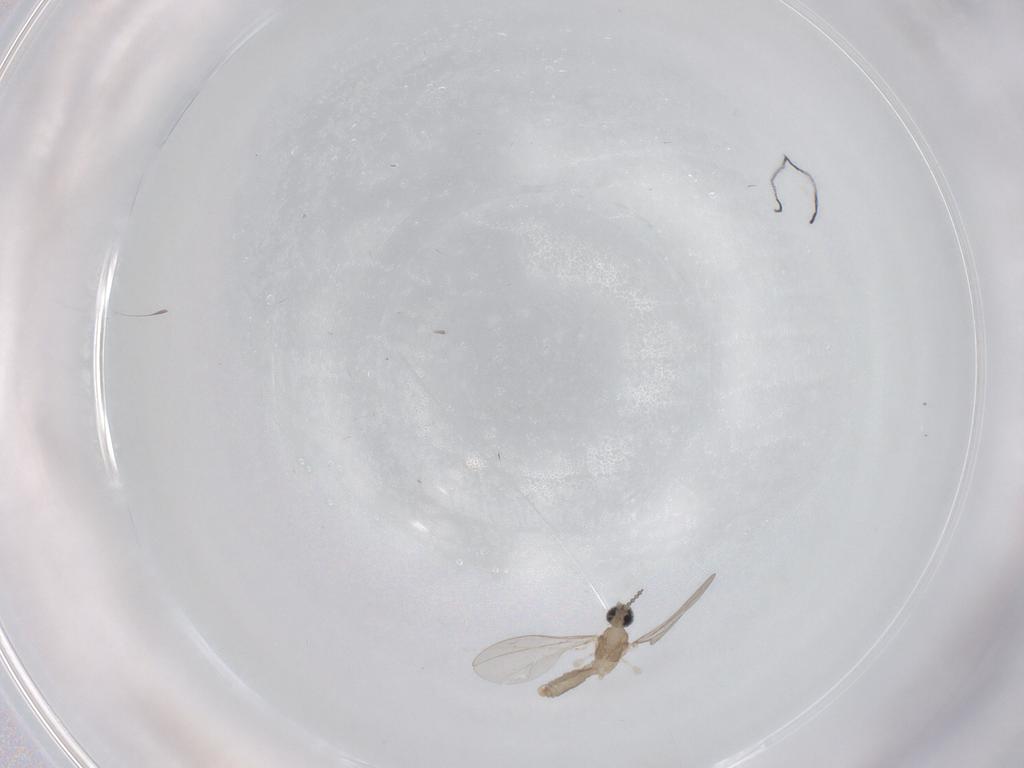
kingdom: Animalia
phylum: Arthropoda
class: Insecta
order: Diptera
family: Cecidomyiidae
